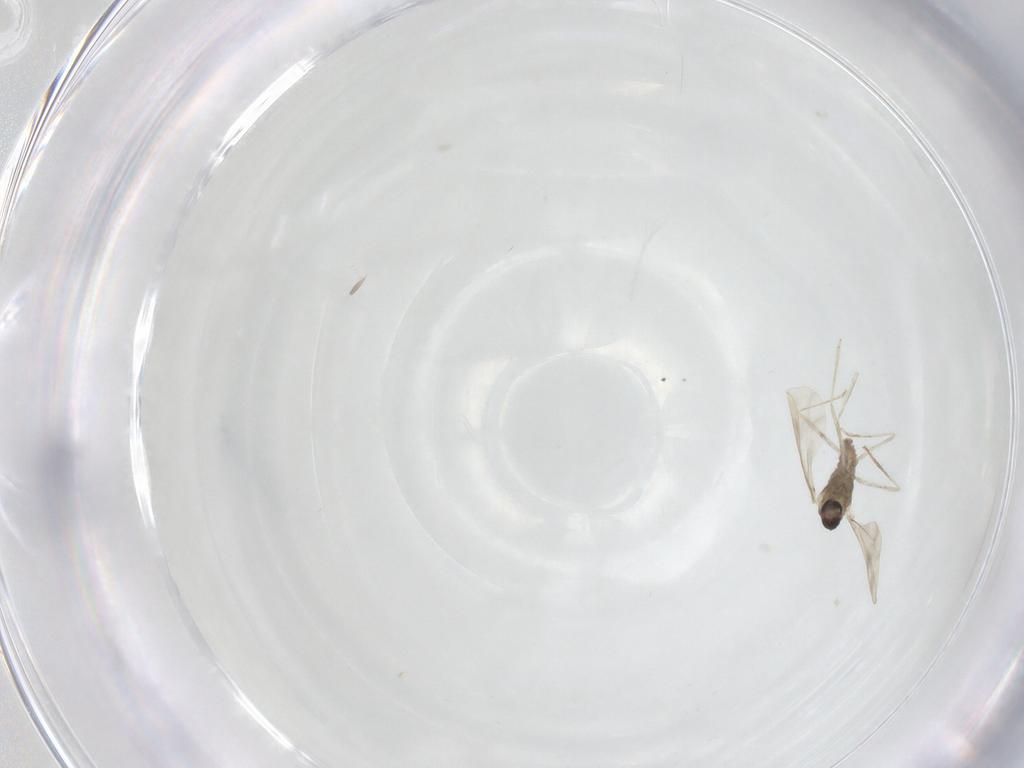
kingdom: Animalia
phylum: Arthropoda
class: Insecta
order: Diptera
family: Cecidomyiidae
